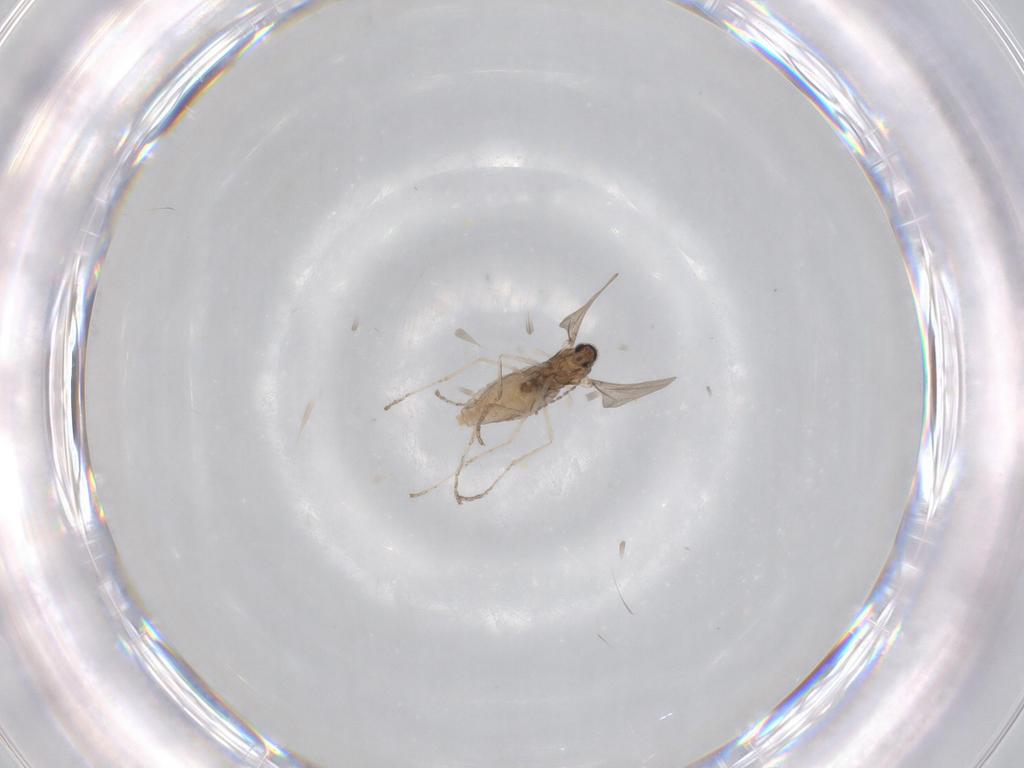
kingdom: Animalia
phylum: Arthropoda
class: Insecta
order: Diptera
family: Cecidomyiidae
